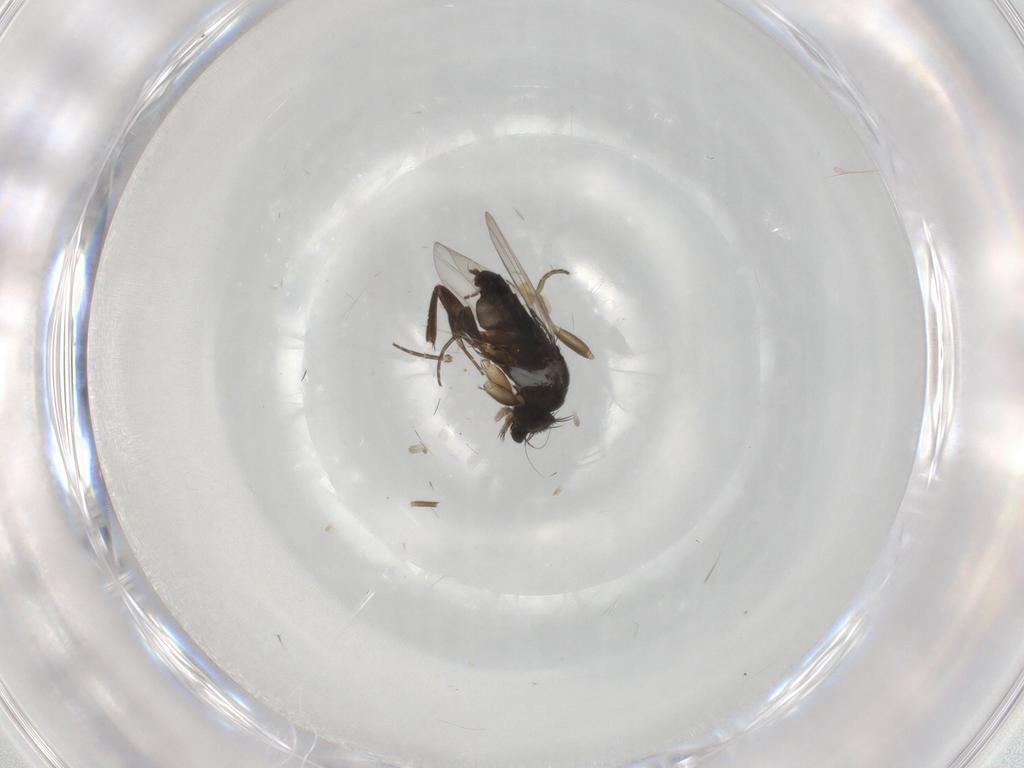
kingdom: Animalia
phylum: Arthropoda
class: Insecta
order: Diptera
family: Phoridae
